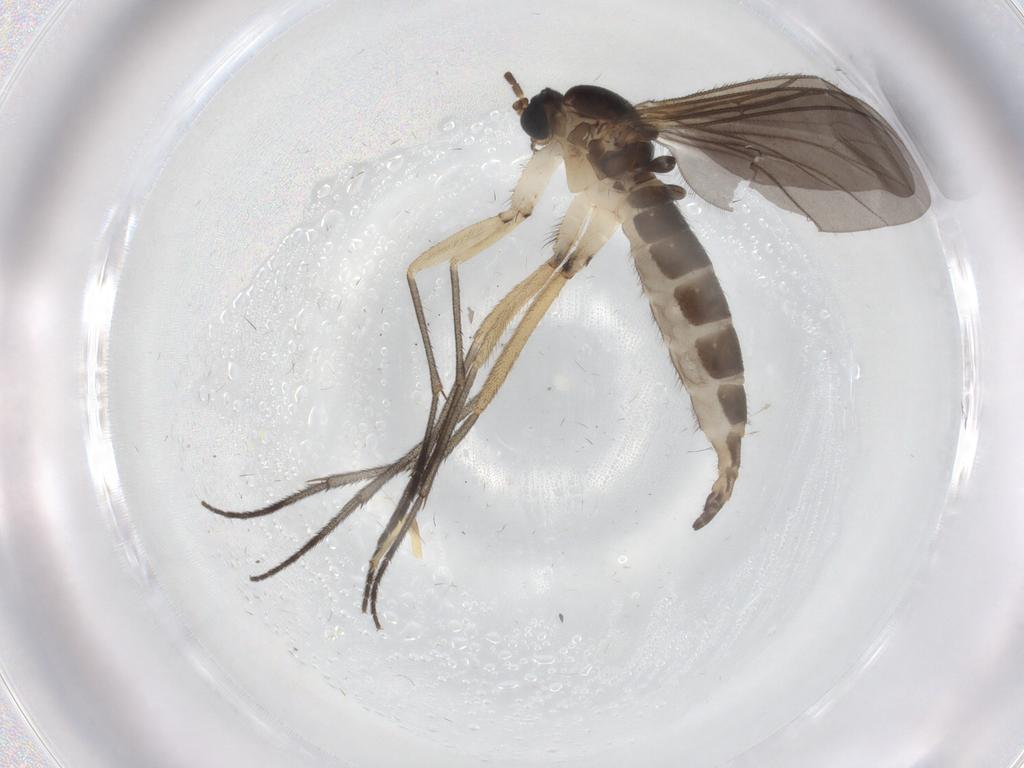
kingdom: Animalia
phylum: Arthropoda
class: Insecta
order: Diptera
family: Sciaridae
